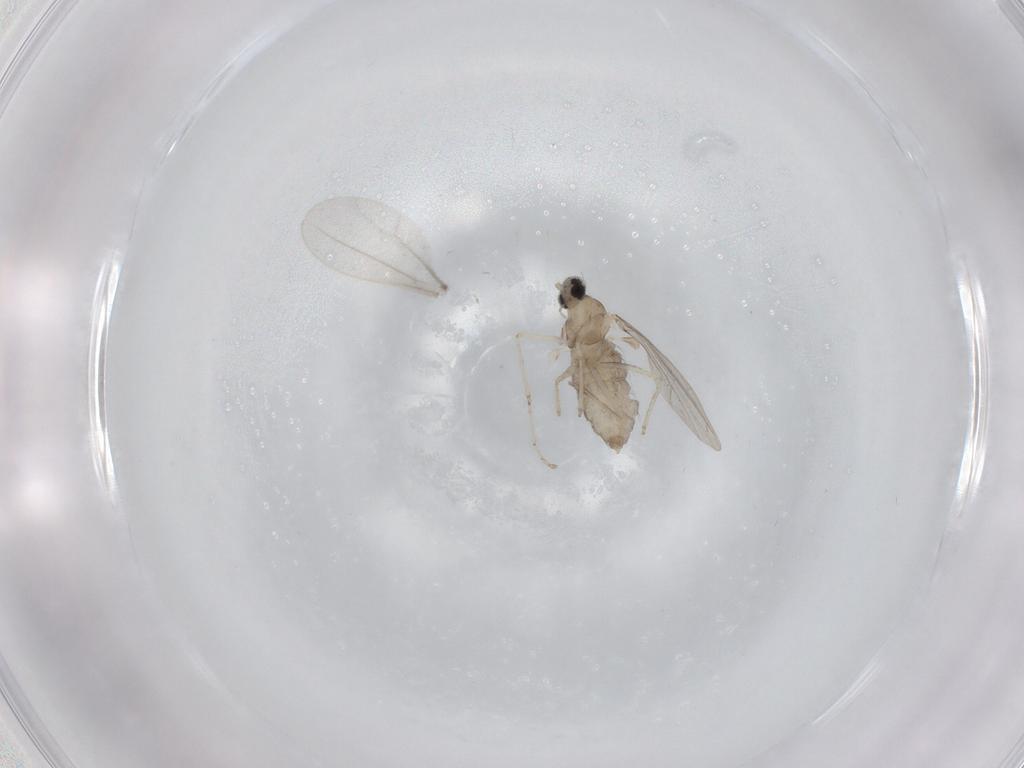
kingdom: Animalia
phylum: Arthropoda
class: Insecta
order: Diptera
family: Cecidomyiidae
